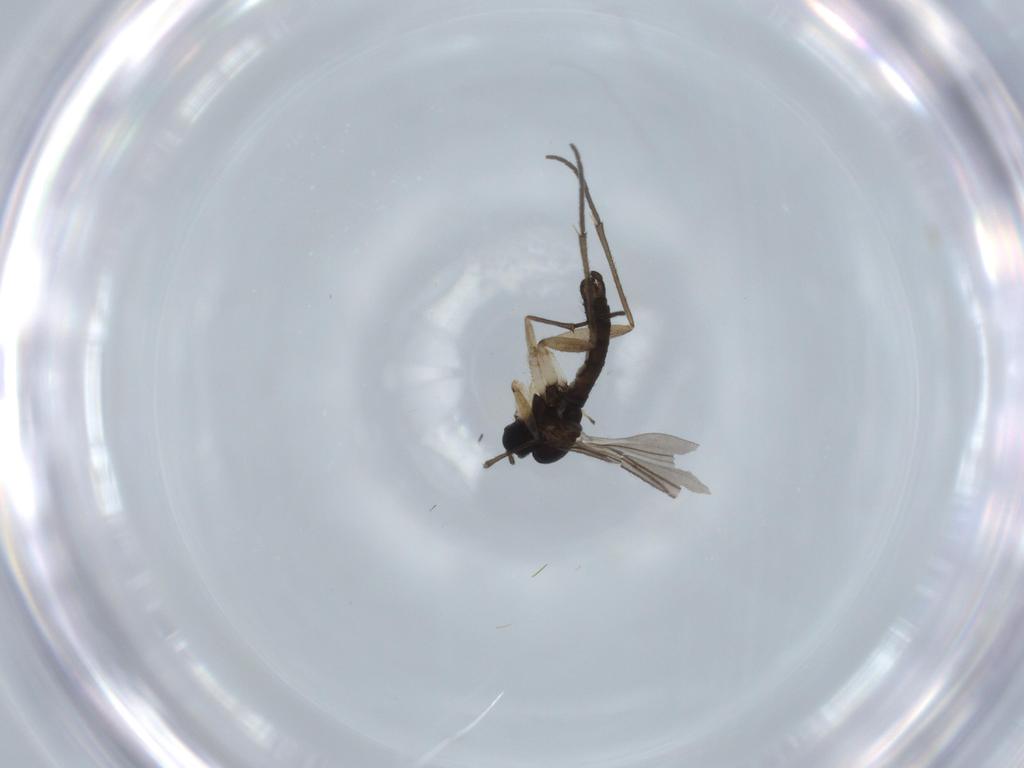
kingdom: Animalia
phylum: Arthropoda
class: Insecta
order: Diptera
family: Sciaridae
